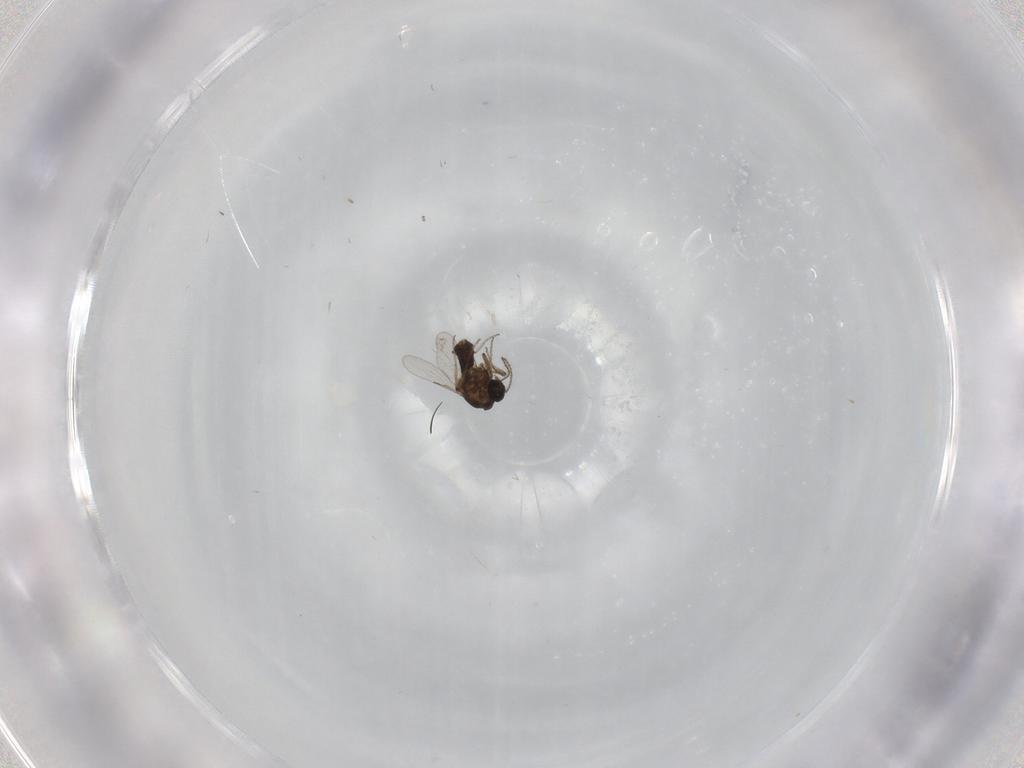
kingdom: Animalia
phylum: Arthropoda
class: Insecta
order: Diptera
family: Ceratopogonidae
